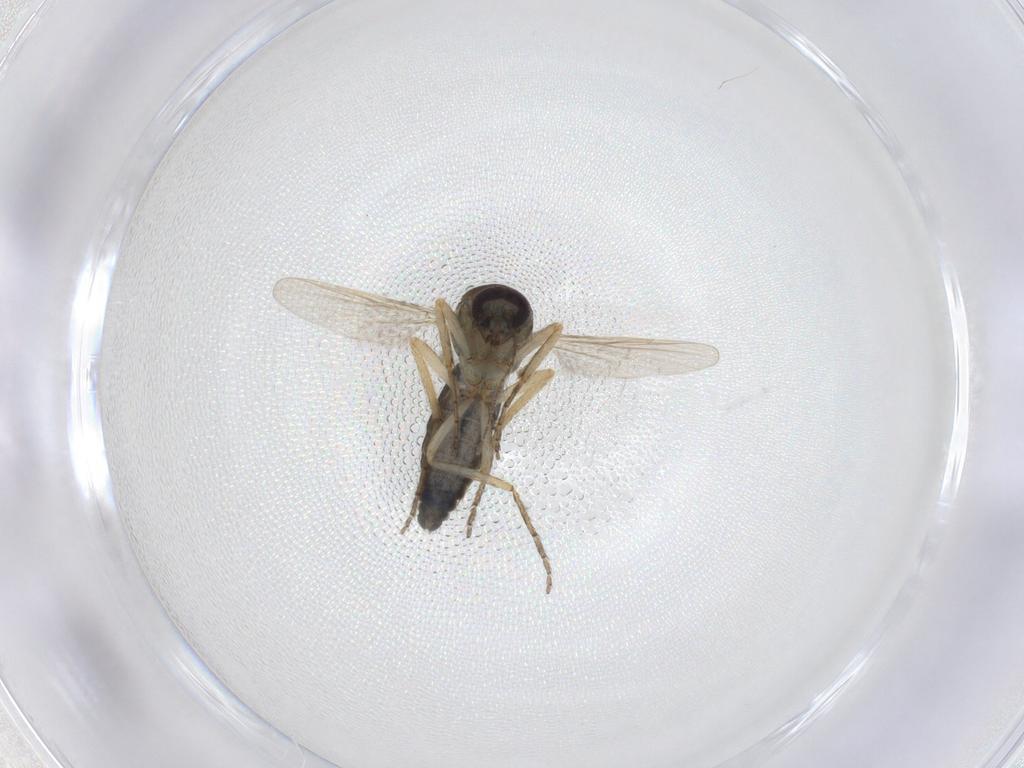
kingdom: Animalia
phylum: Arthropoda
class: Insecta
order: Diptera
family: Ceratopogonidae
